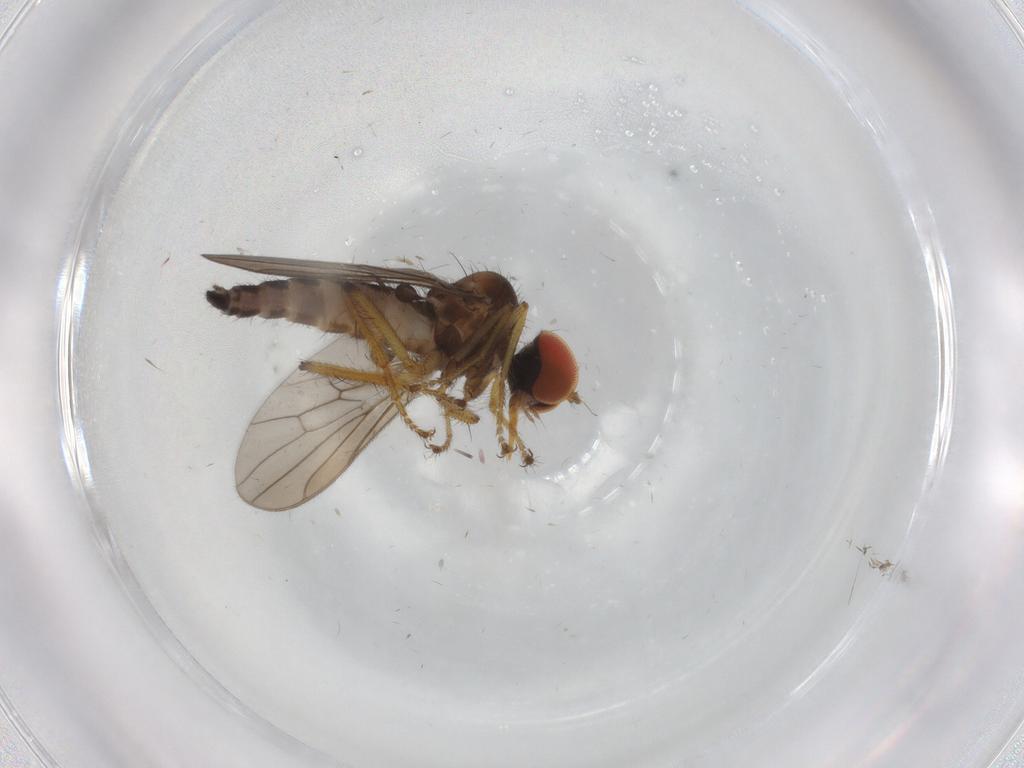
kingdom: Animalia
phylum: Arthropoda
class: Insecta
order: Diptera
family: Hybotidae
